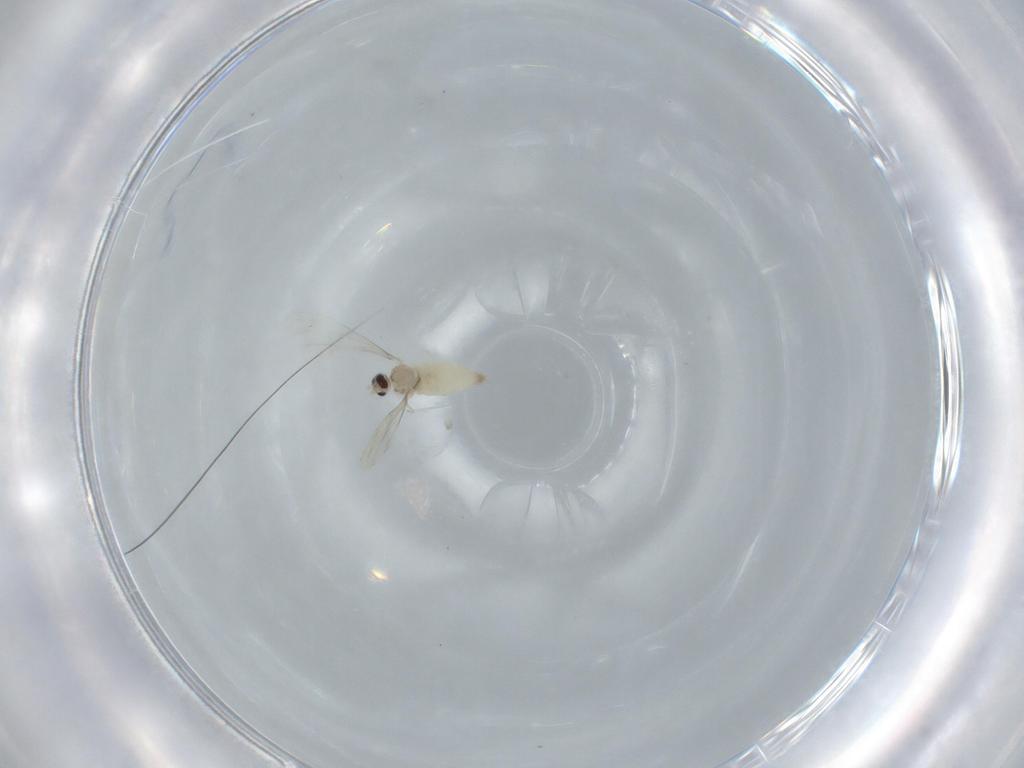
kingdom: Animalia
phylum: Arthropoda
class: Insecta
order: Diptera
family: Cecidomyiidae
